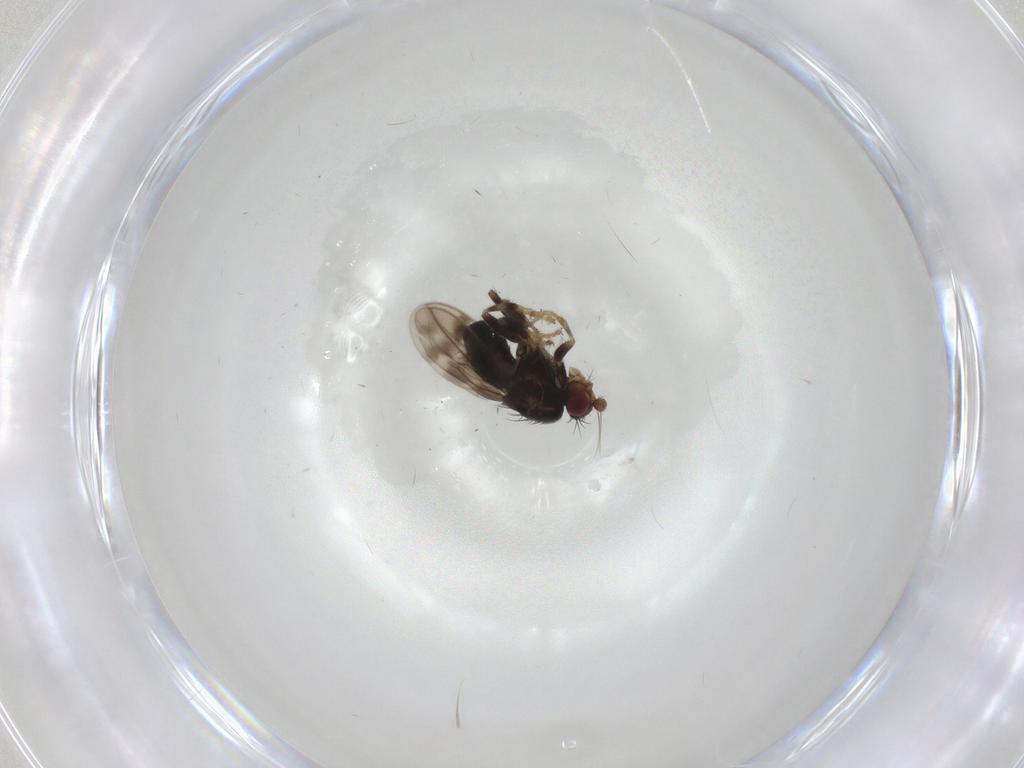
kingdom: Animalia
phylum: Arthropoda
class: Insecta
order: Diptera
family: Sphaeroceridae
